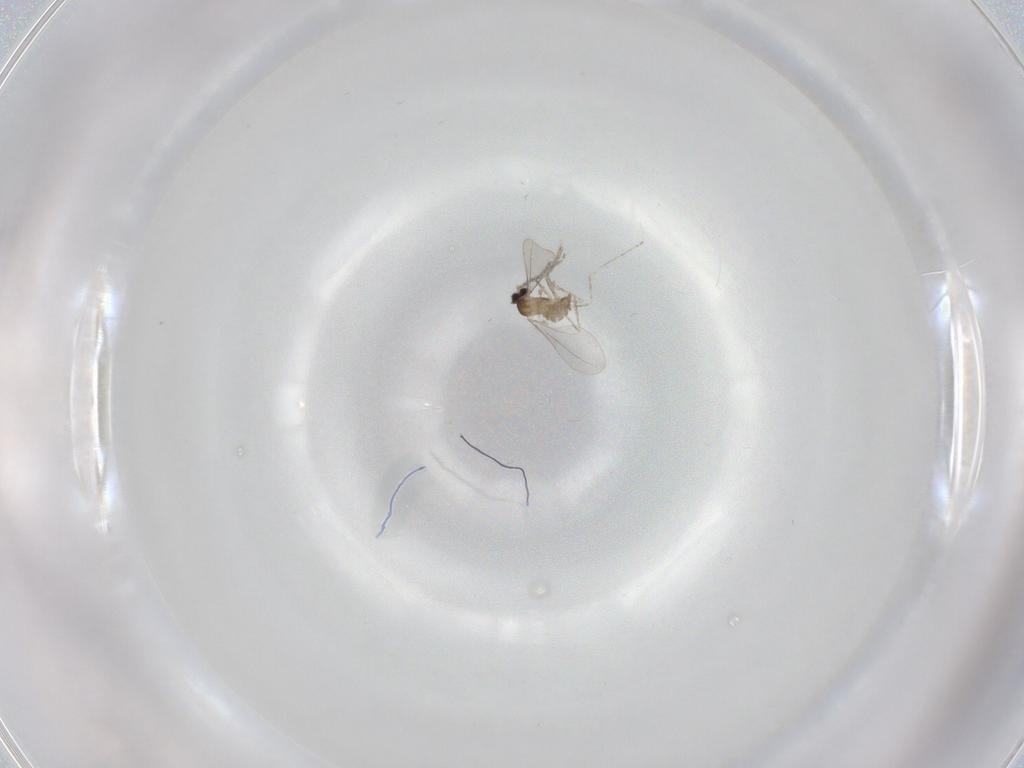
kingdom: Animalia
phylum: Arthropoda
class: Insecta
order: Diptera
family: Cecidomyiidae
